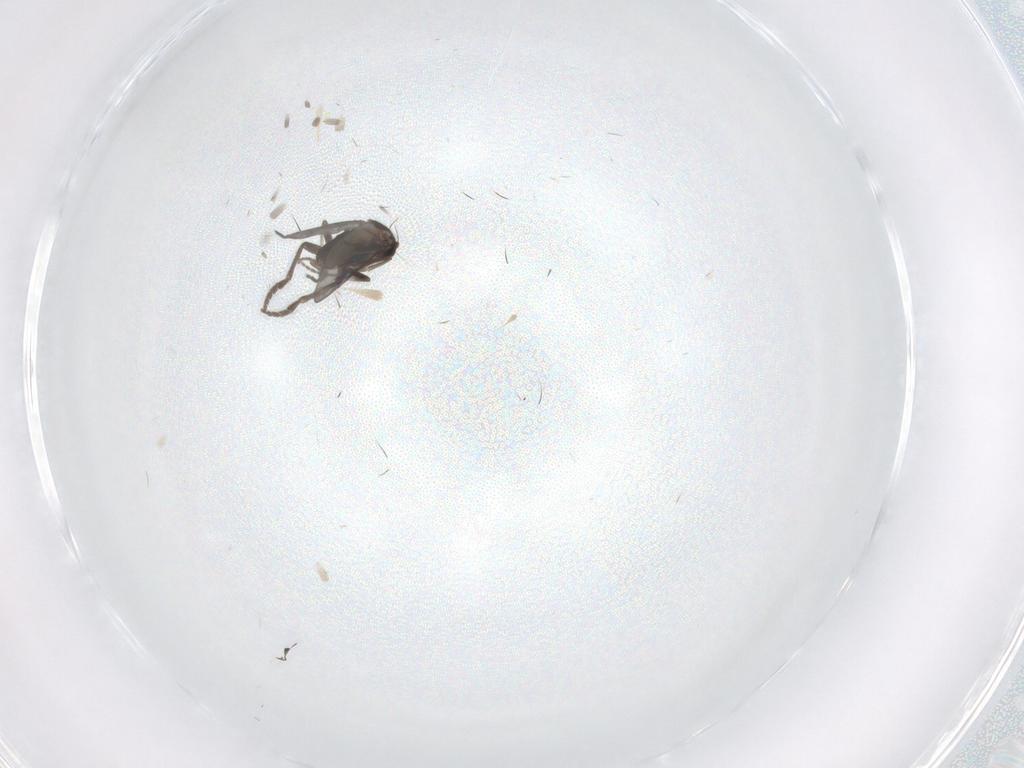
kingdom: Animalia
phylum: Arthropoda
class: Insecta
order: Diptera
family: Phoridae
